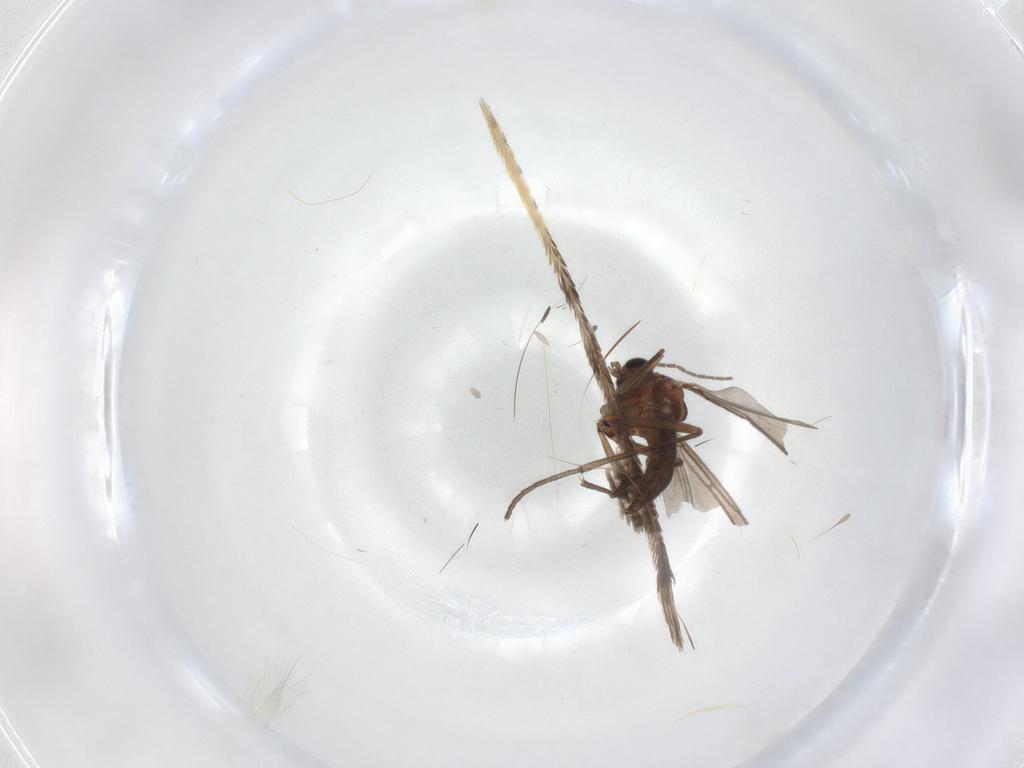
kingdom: Animalia
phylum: Arthropoda
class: Insecta
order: Diptera
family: Sciaridae
